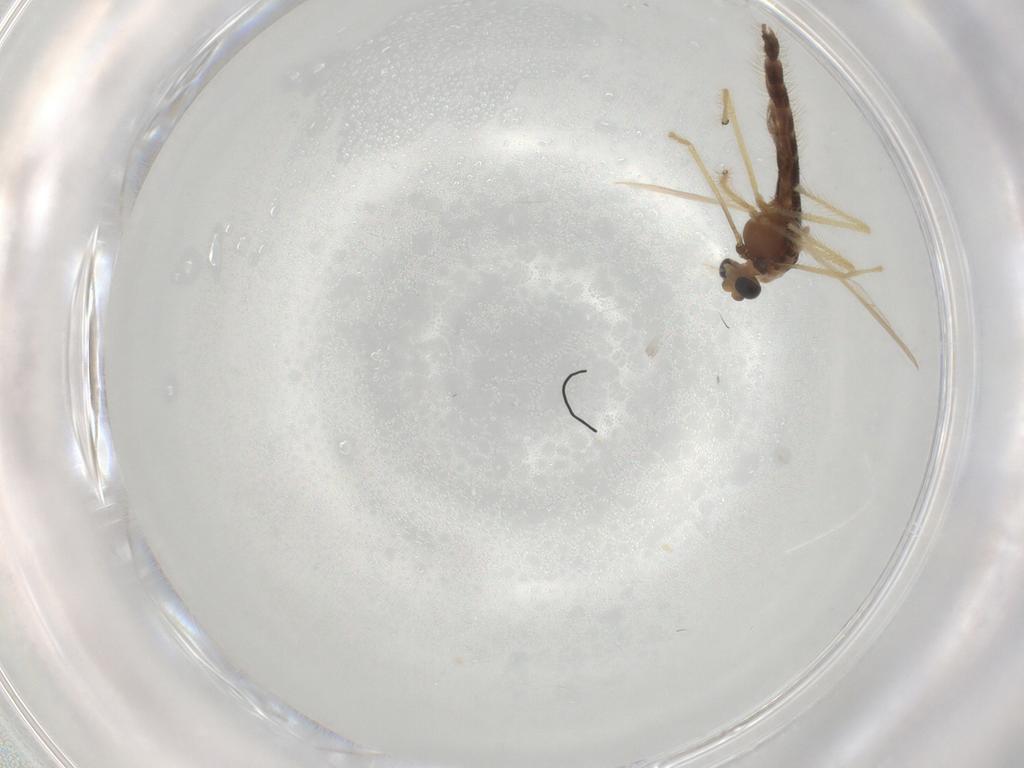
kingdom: Animalia
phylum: Arthropoda
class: Insecta
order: Diptera
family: Chironomidae
